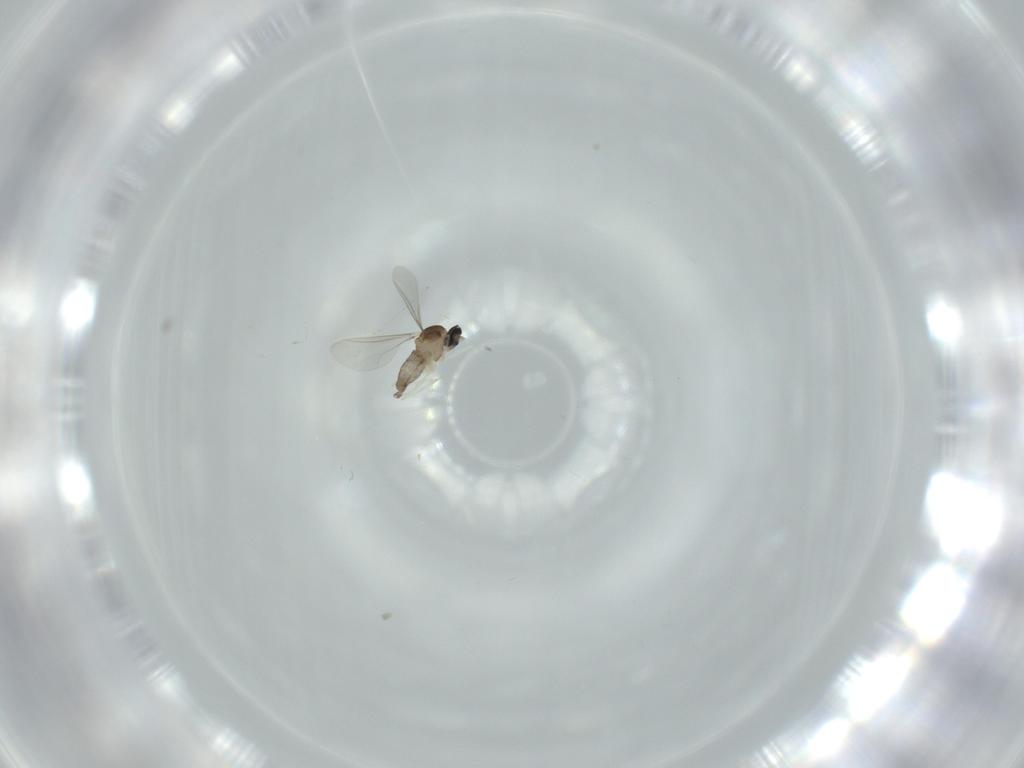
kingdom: Animalia
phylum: Arthropoda
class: Insecta
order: Diptera
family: Cecidomyiidae
